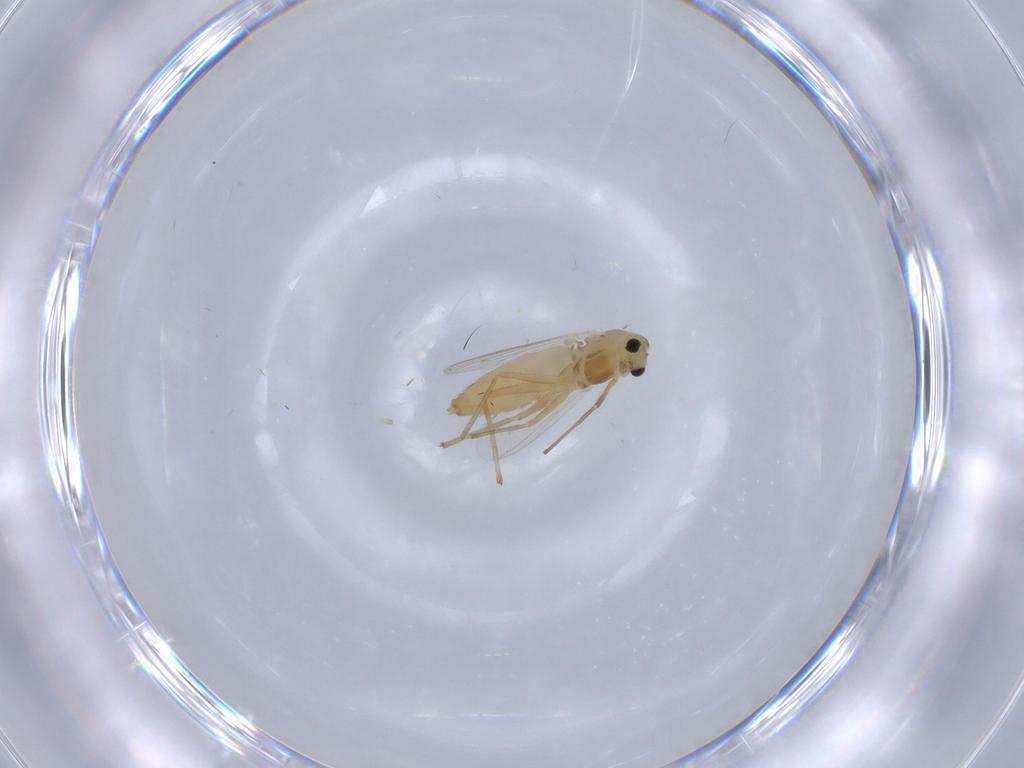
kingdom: Animalia
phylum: Arthropoda
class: Insecta
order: Diptera
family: Chironomidae
